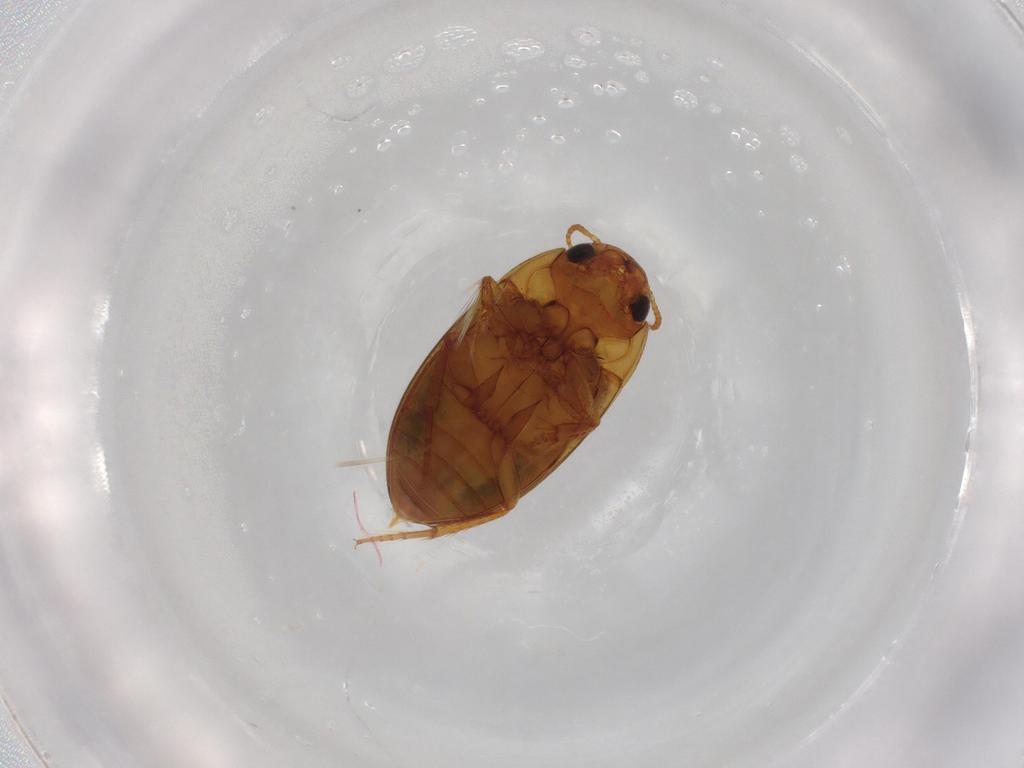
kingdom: Animalia
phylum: Arthropoda
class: Insecta
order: Coleoptera
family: Noteridae
